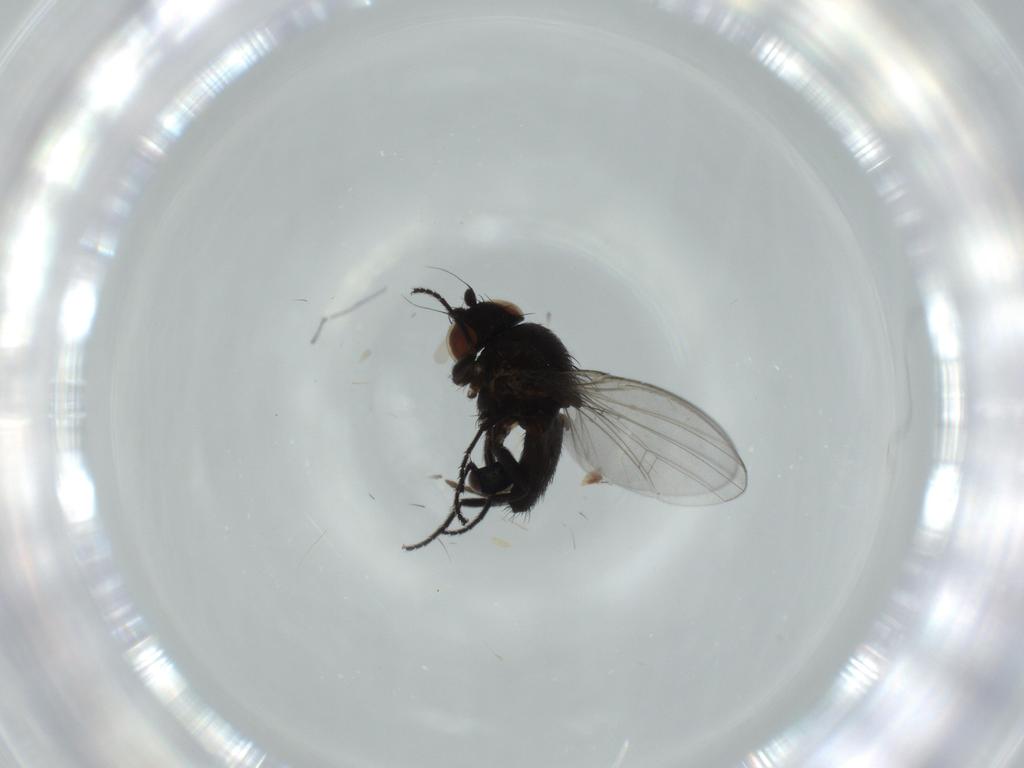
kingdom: Animalia
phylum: Arthropoda
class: Insecta
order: Diptera
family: Milichiidae
